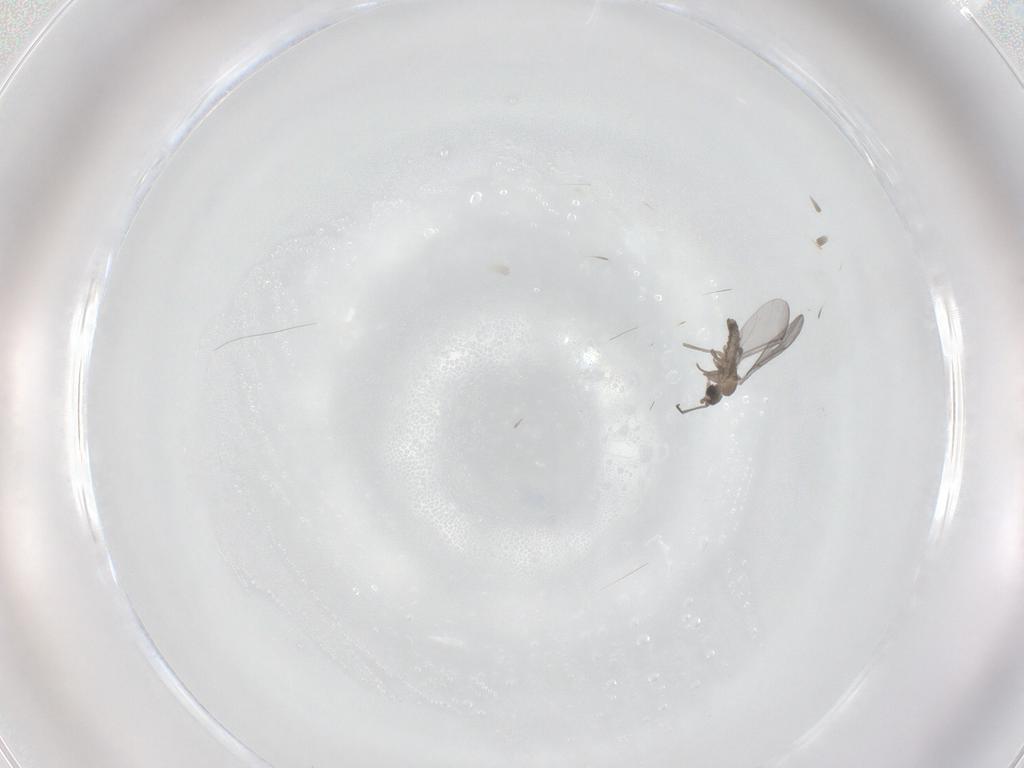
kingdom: Animalia
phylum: Arthropoda
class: Insecta
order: Diptera
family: Sciaridae
